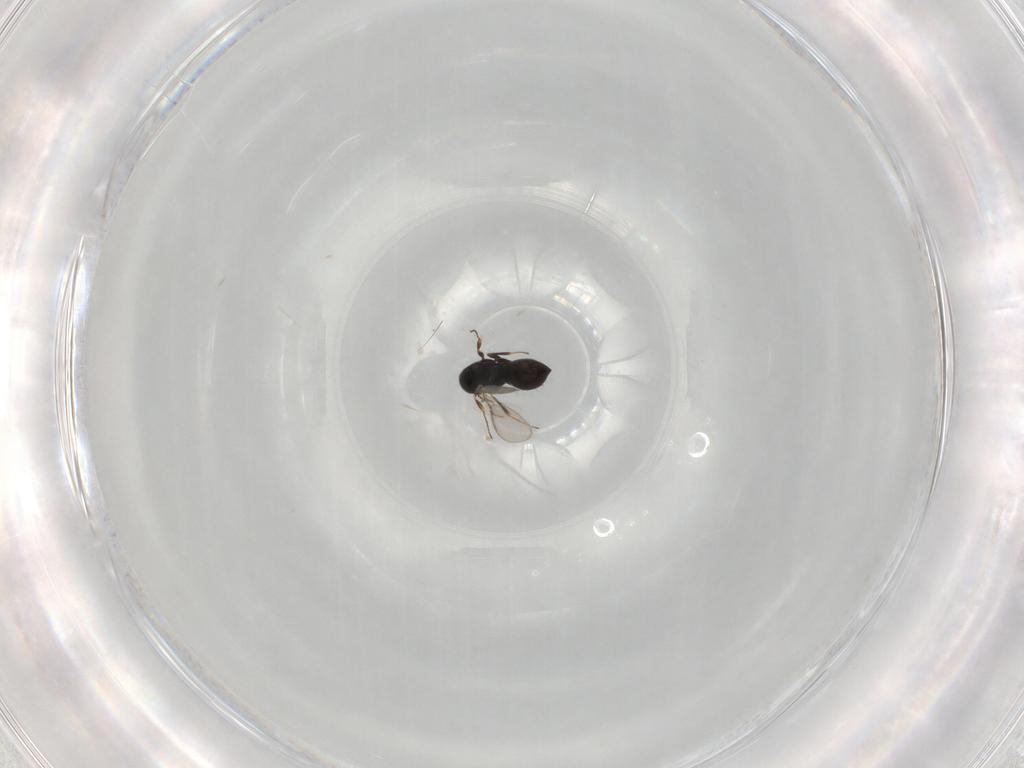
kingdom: Animalia
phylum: Arthropoda
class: Insecta
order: Hymenoptera
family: Scelionidae
